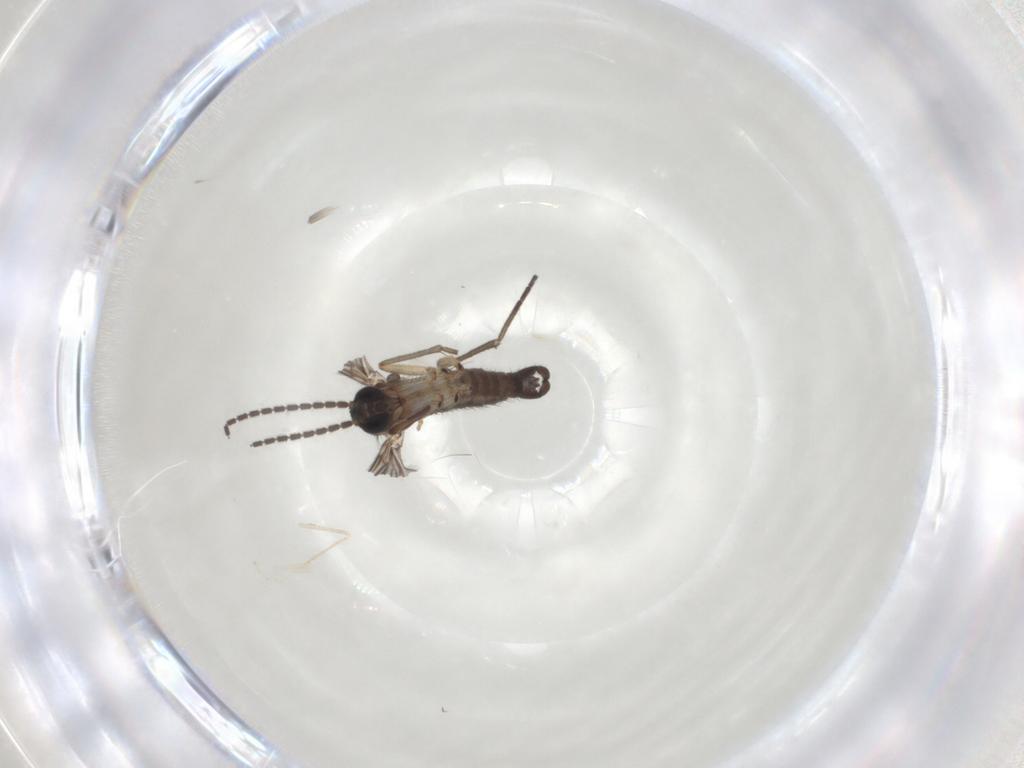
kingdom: Animalia
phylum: Arthropoda
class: Insecta
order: Diptera
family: Sciaridae
